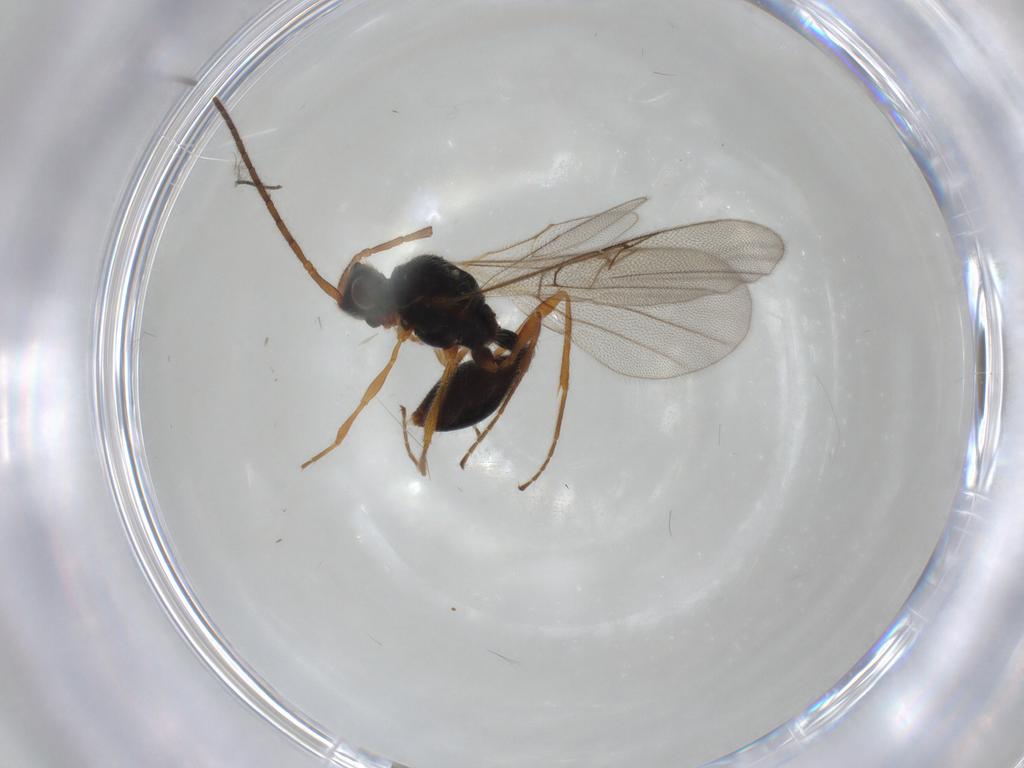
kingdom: Animalia
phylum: Arthropoda
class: Insecta
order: Hymenoptera
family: Diapriidae
